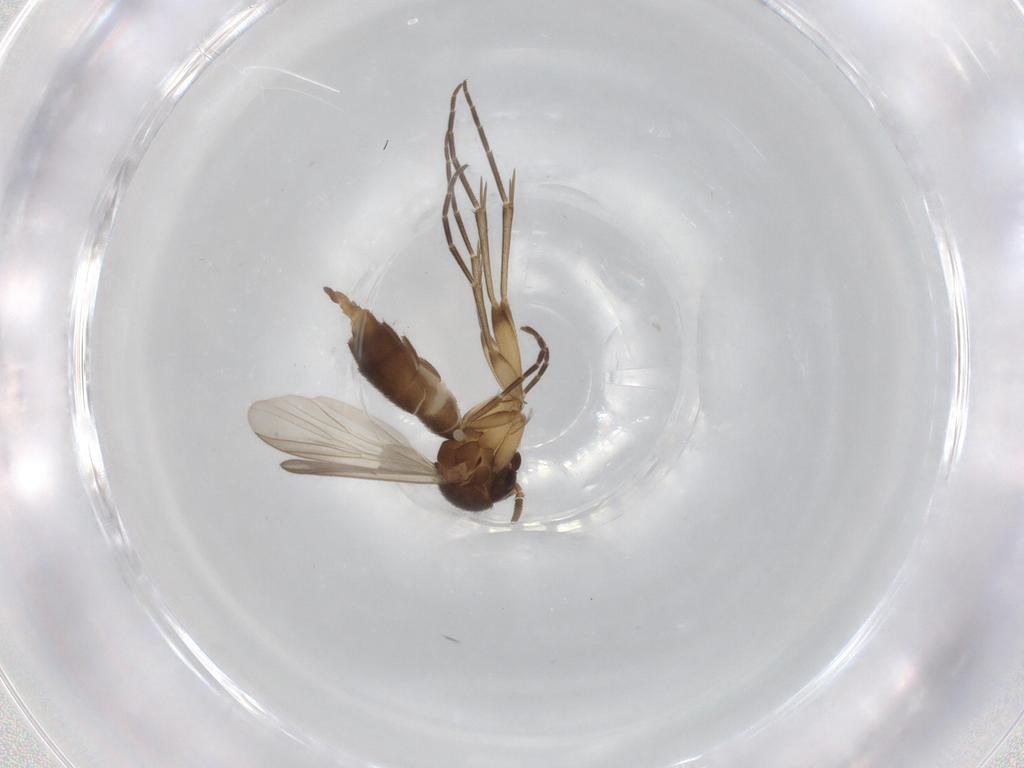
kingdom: Animalia
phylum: Arthropoda
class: Insecta
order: Diptera
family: Mycetophilidae
